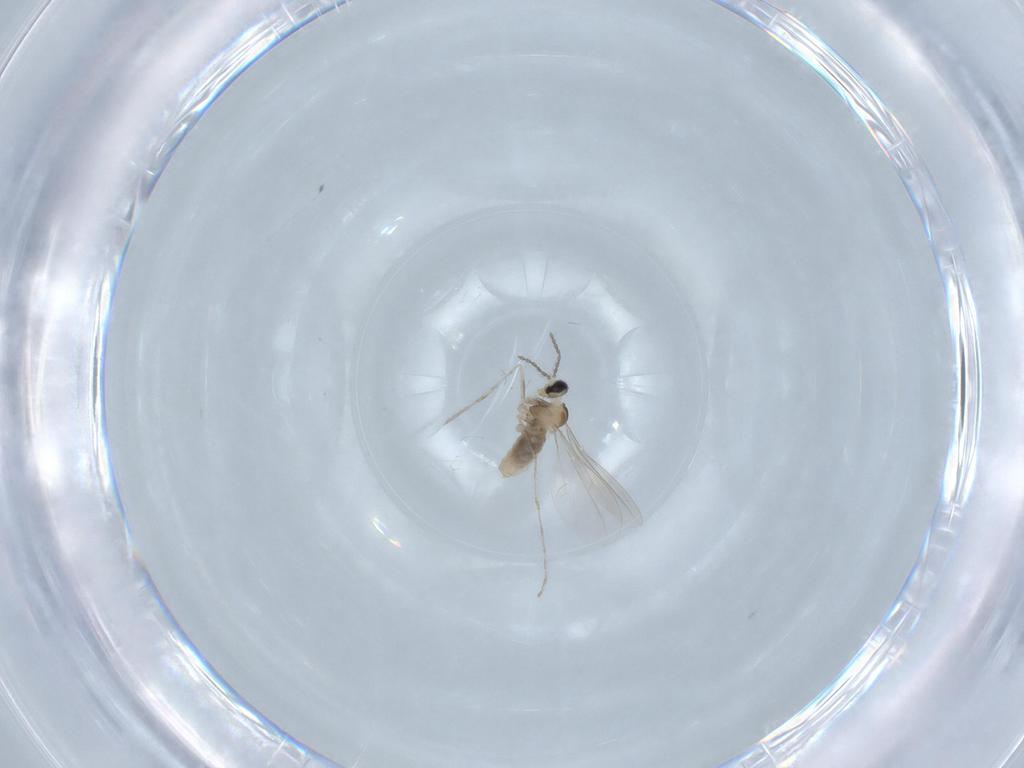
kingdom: Animalia
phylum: Arthropoda
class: Insecta
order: Diptera
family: Cecidomyiidae
